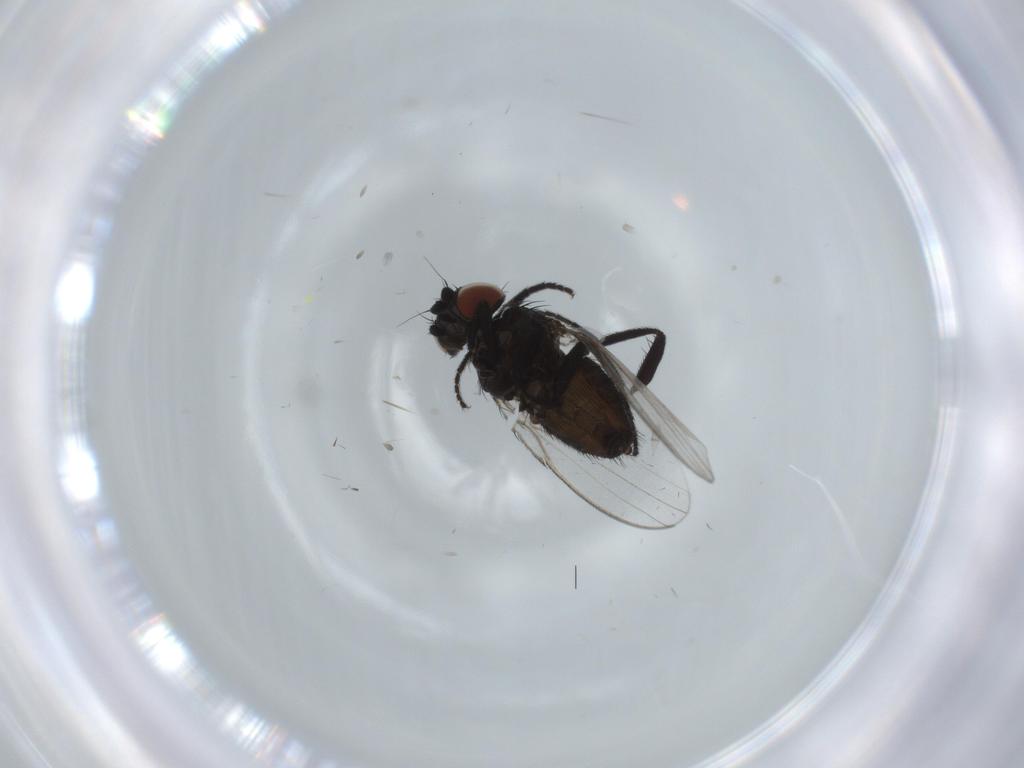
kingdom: Animalia
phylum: Arthropoda
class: Insecta
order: Diptera
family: Milichiidae
